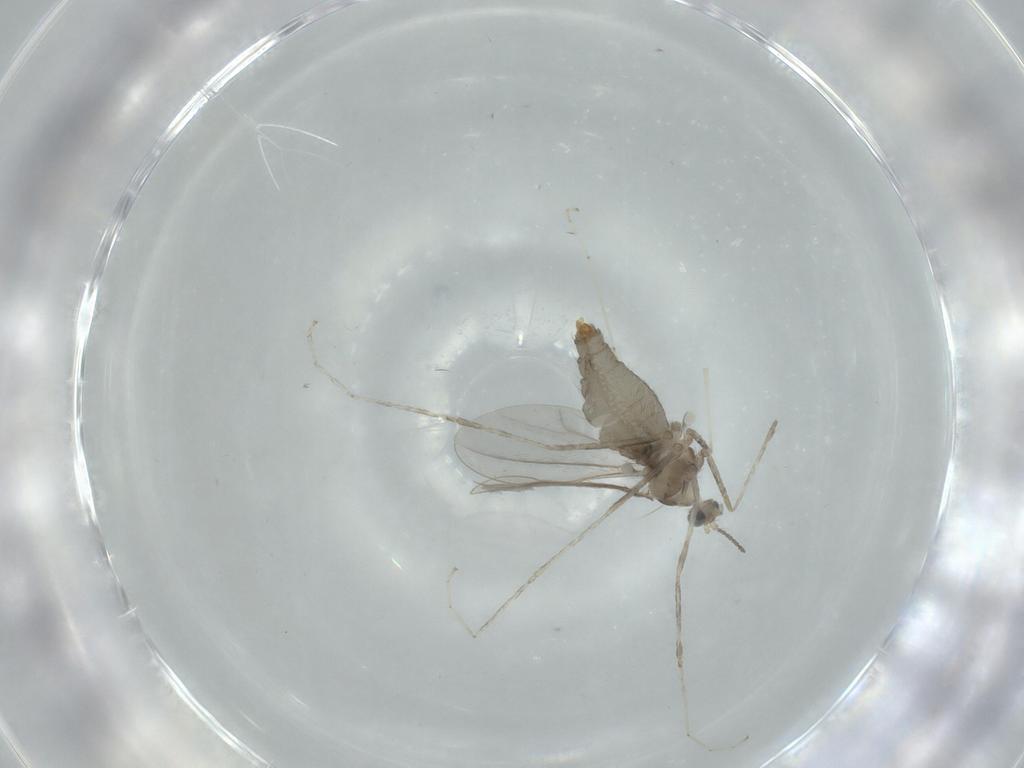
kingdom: Animalia
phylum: Arthropoda
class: Insecta
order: Diptera
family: Cecidomyiidae
